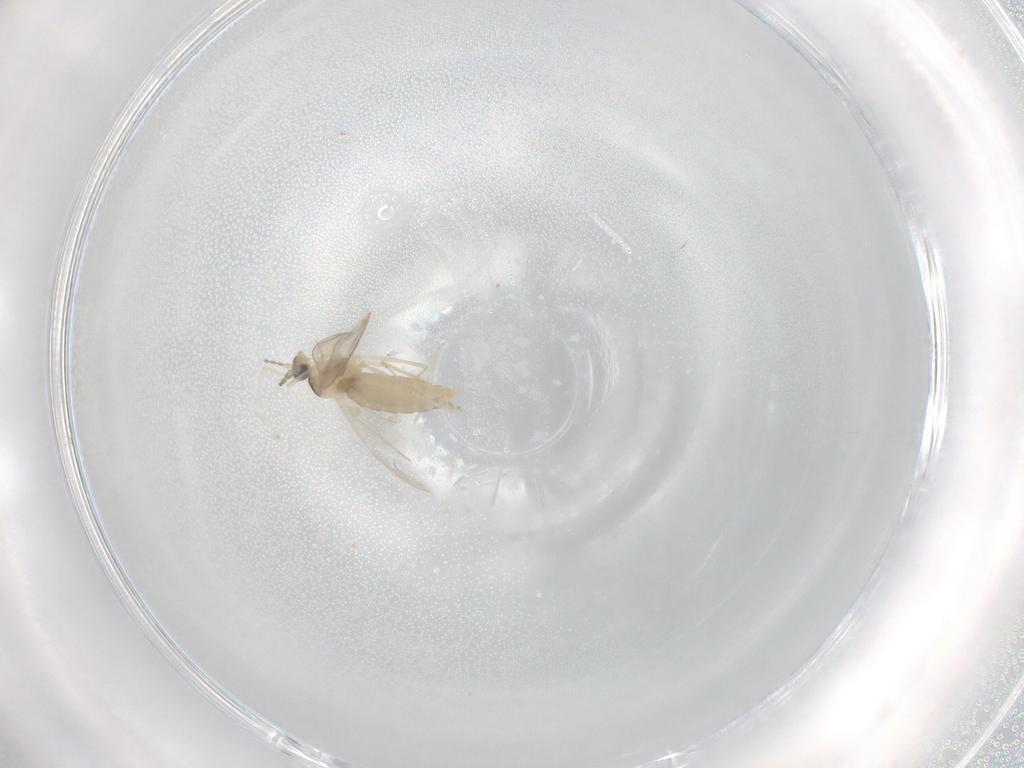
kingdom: Animalia
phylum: Arthropoda
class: Insecta
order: Diptera
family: Cecidomyiidae
